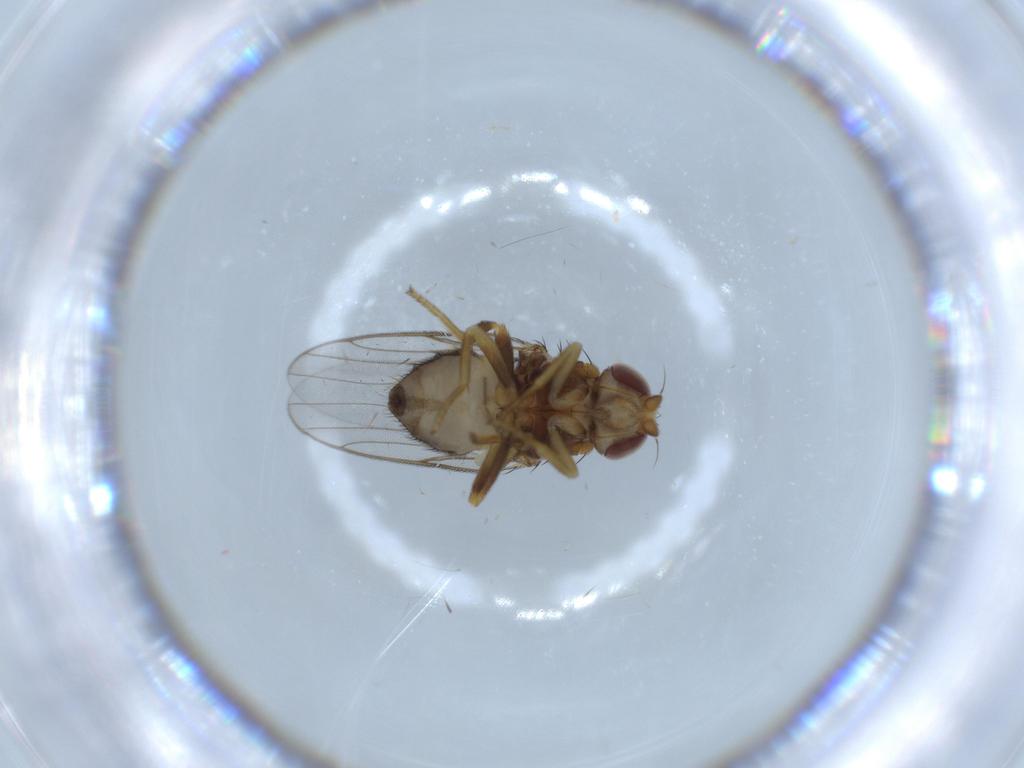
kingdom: Animalia
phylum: Arthropoda
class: Insecta
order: Diptera
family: Chloropidae
